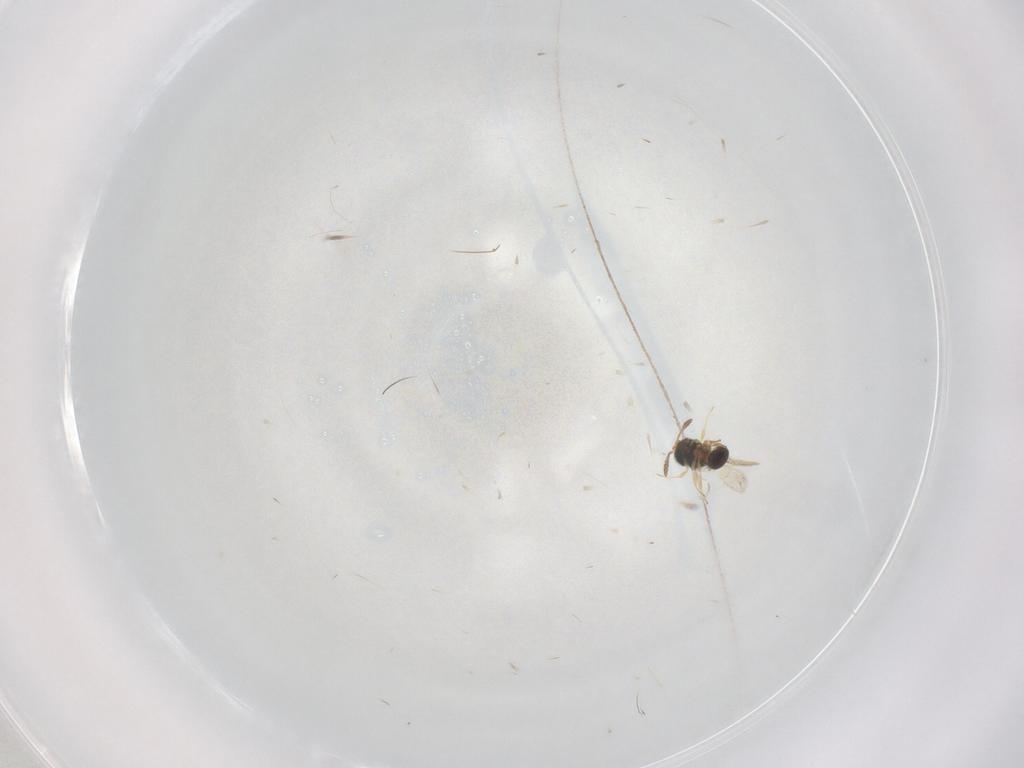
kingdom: Animalia
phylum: Arthropoda
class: Insecta
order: Hymenoptera
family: Scelionidae
